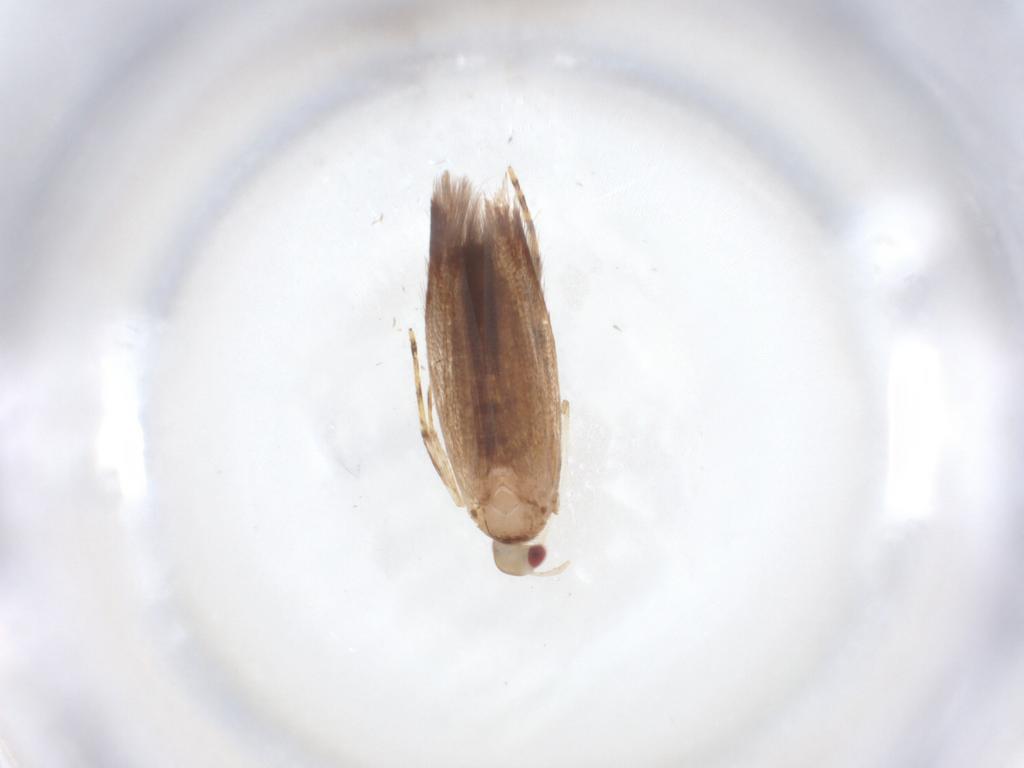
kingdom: Animalia
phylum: Arthropoda
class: Insecta
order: Lepidoptera
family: Cosmopterigidae
